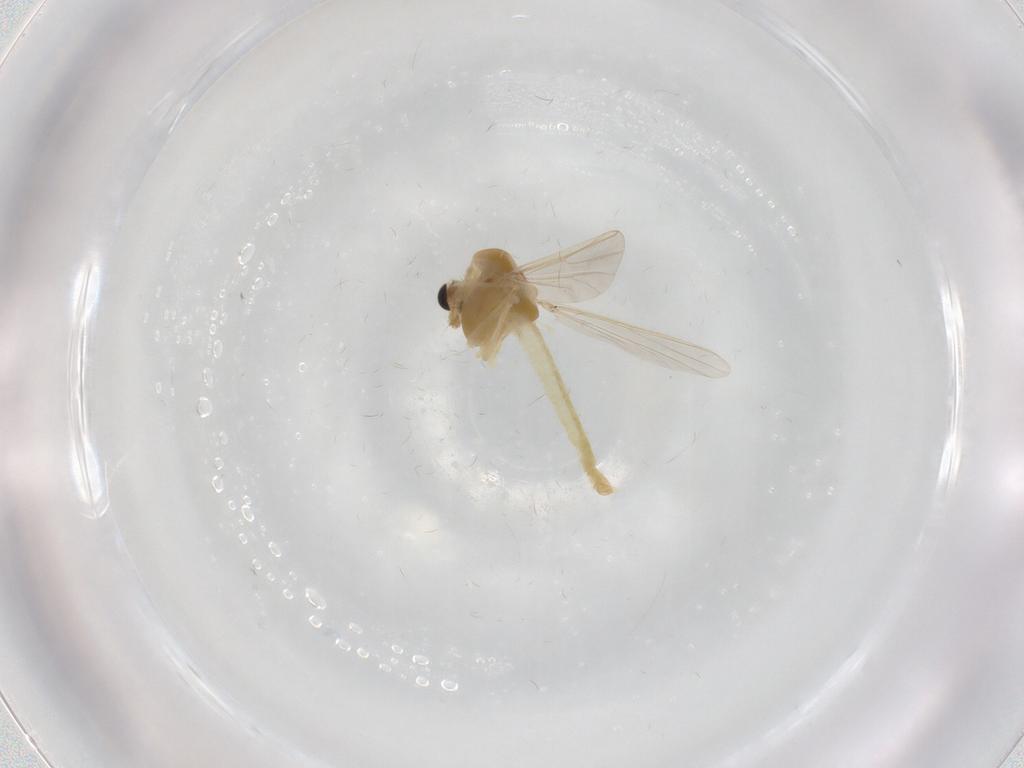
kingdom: Animalia
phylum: Arthropoda
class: Insecta
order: Diptera
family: Chironomidae
